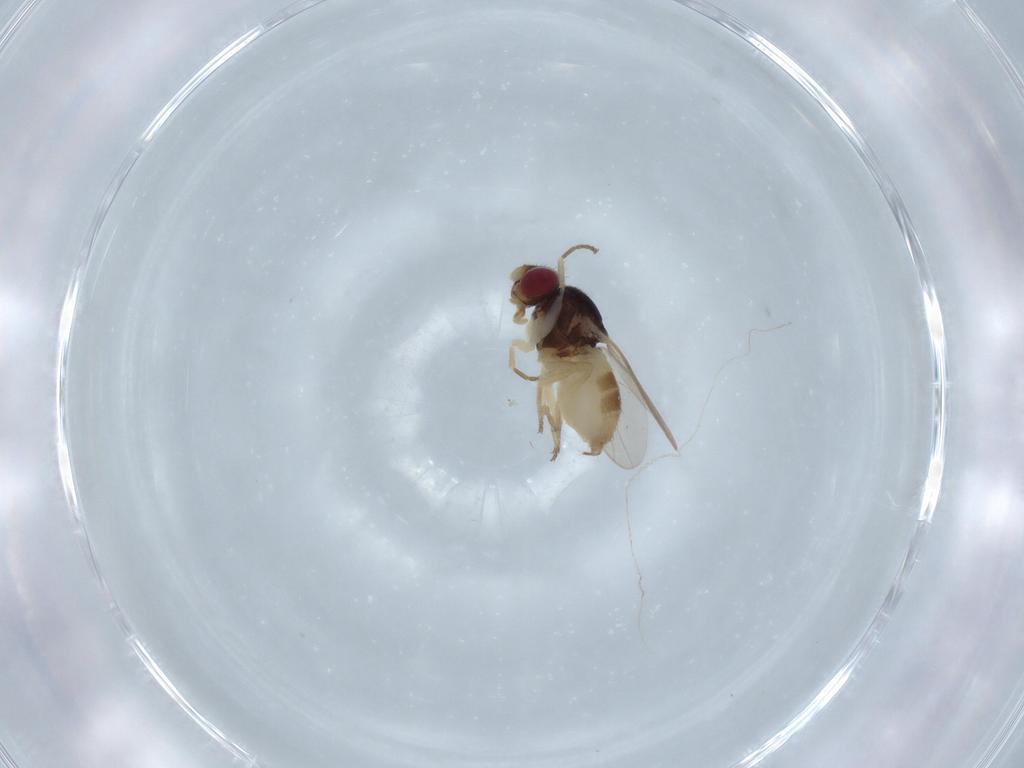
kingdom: Animalia
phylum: Arthropoda
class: Insecta
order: Diptera
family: Chloropidae
